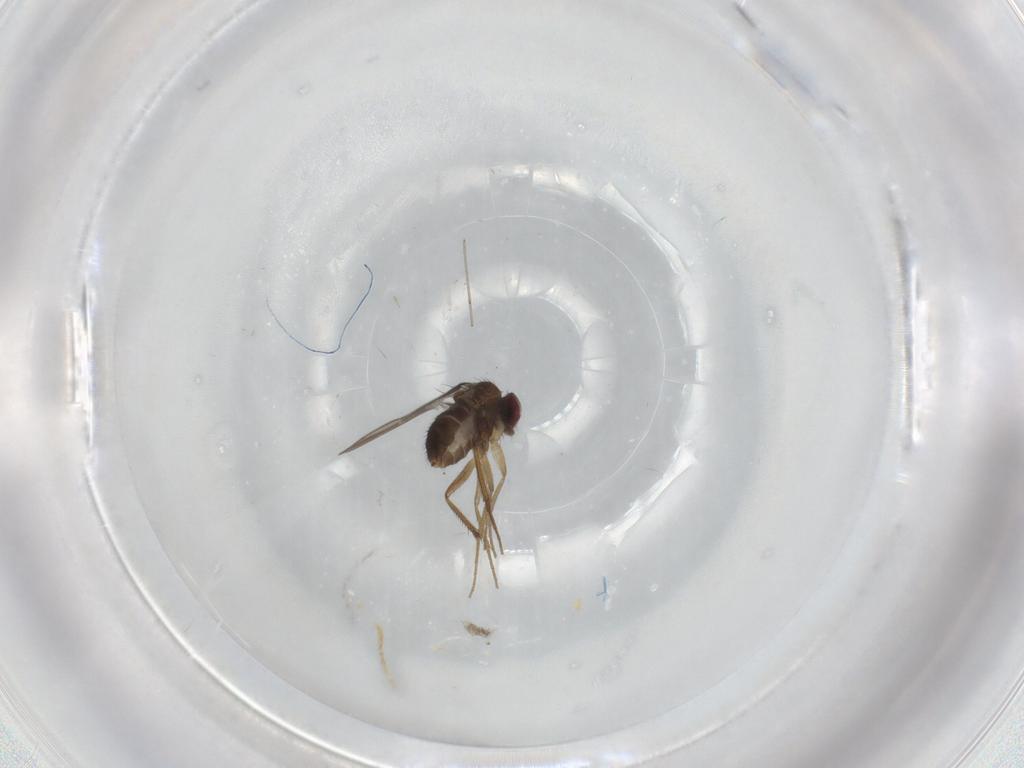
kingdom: Animalia
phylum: Arthropoda
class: Insecta
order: Diptera
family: Dolichopodidae
